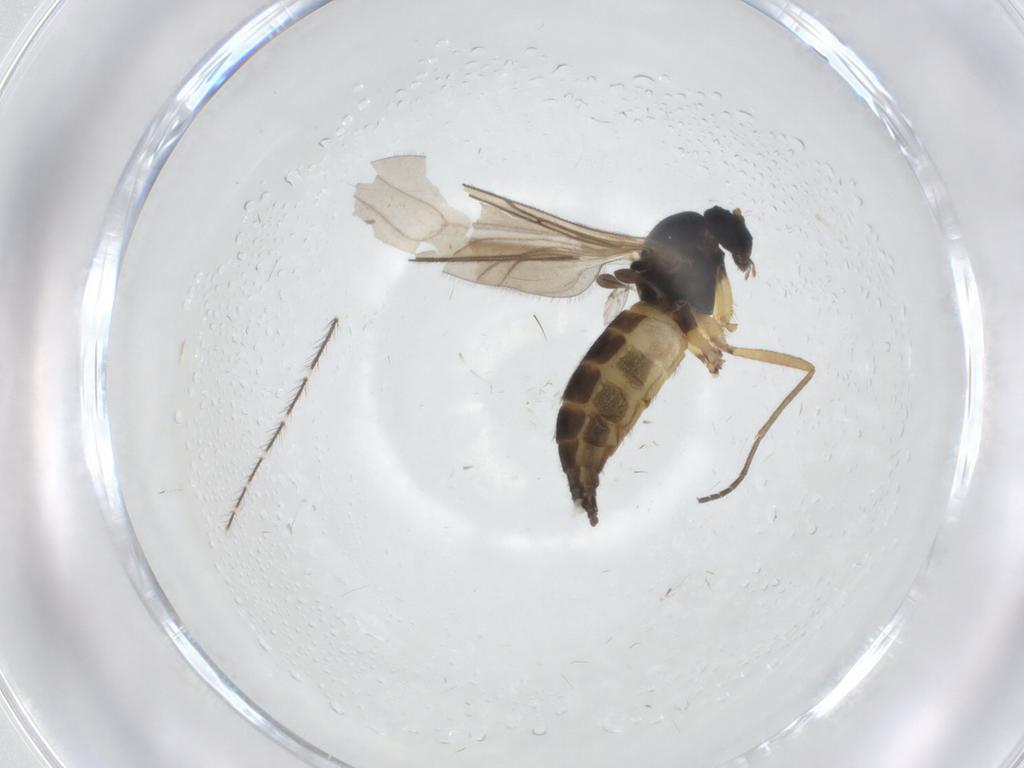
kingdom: Animalia
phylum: Arthropoda
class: Insecta
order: Diptera
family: Sciaridae
